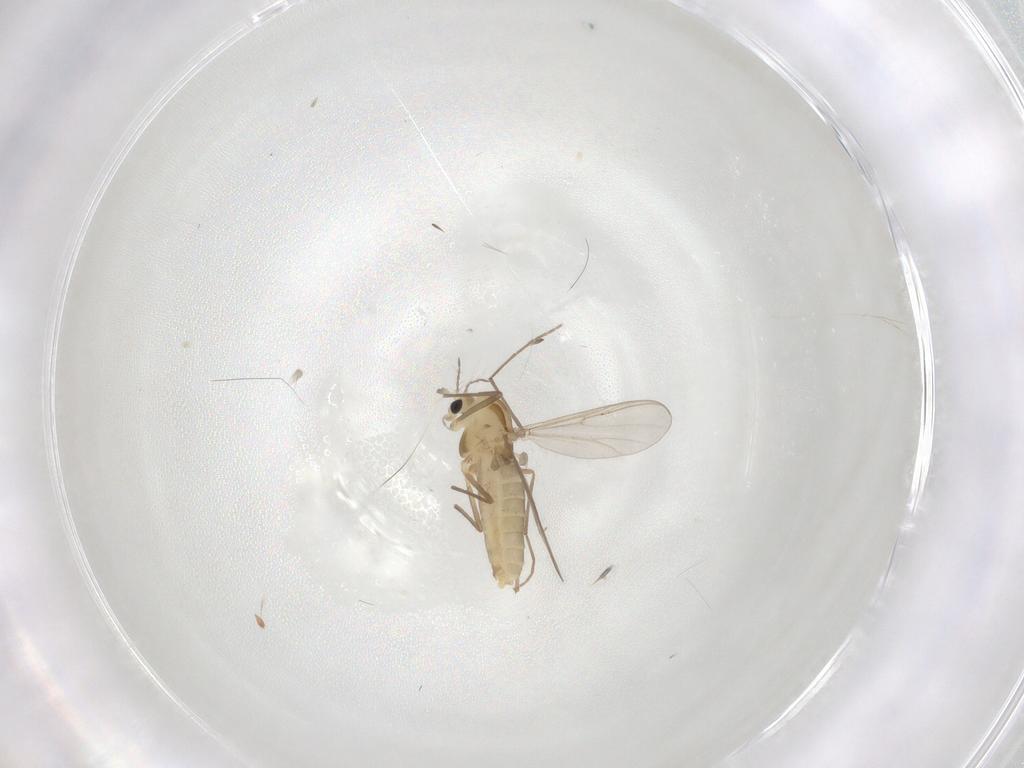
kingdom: Animalia
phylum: Arthropoda
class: Insecta
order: Diptera
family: Chironomidae
